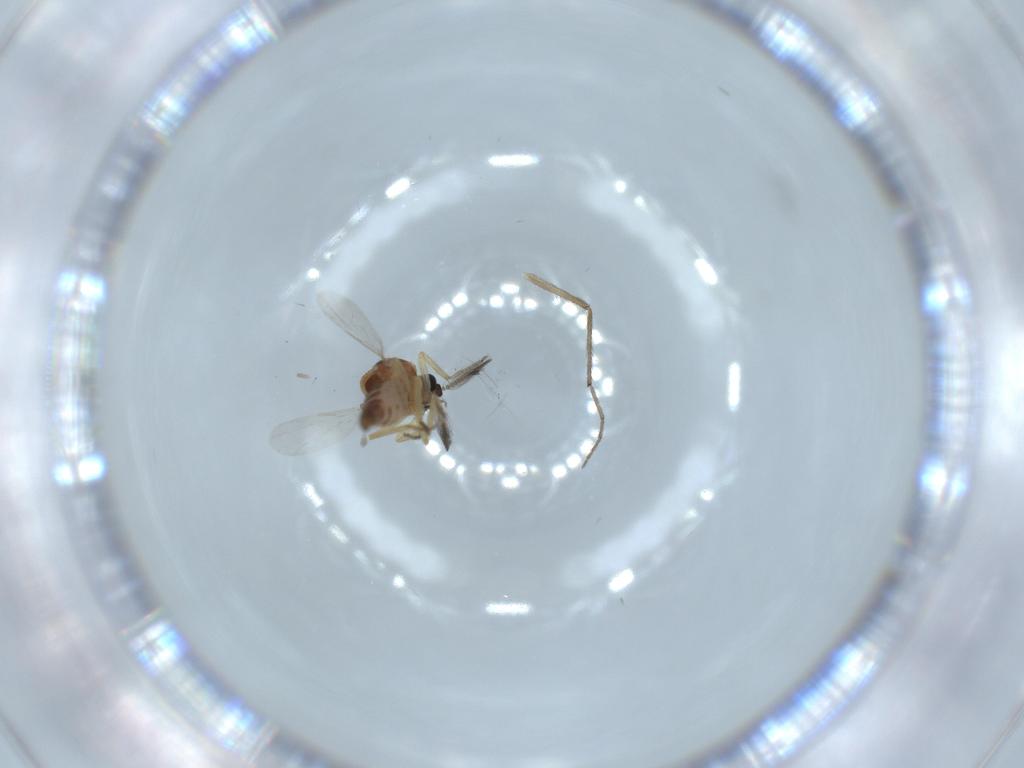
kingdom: Animalia
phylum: Arthropoda
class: Insecta
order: Diptera
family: Ceratopogonidae
